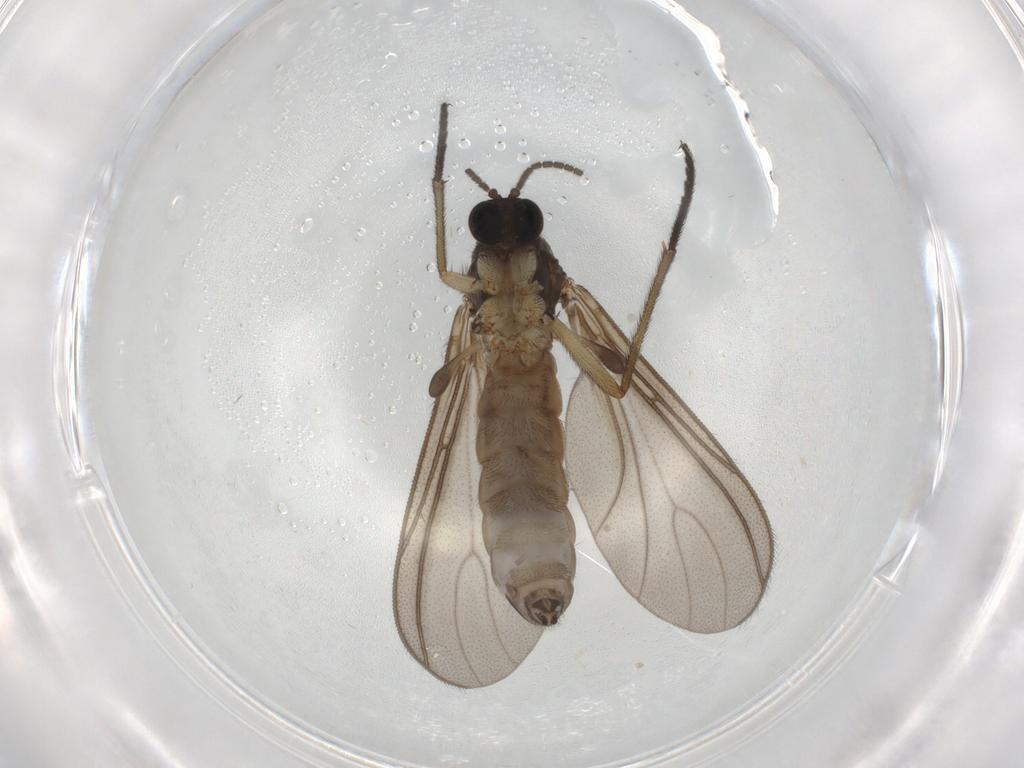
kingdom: Animalia
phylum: Arthropoda
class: Insecta
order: Diptera
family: Sciaridae
